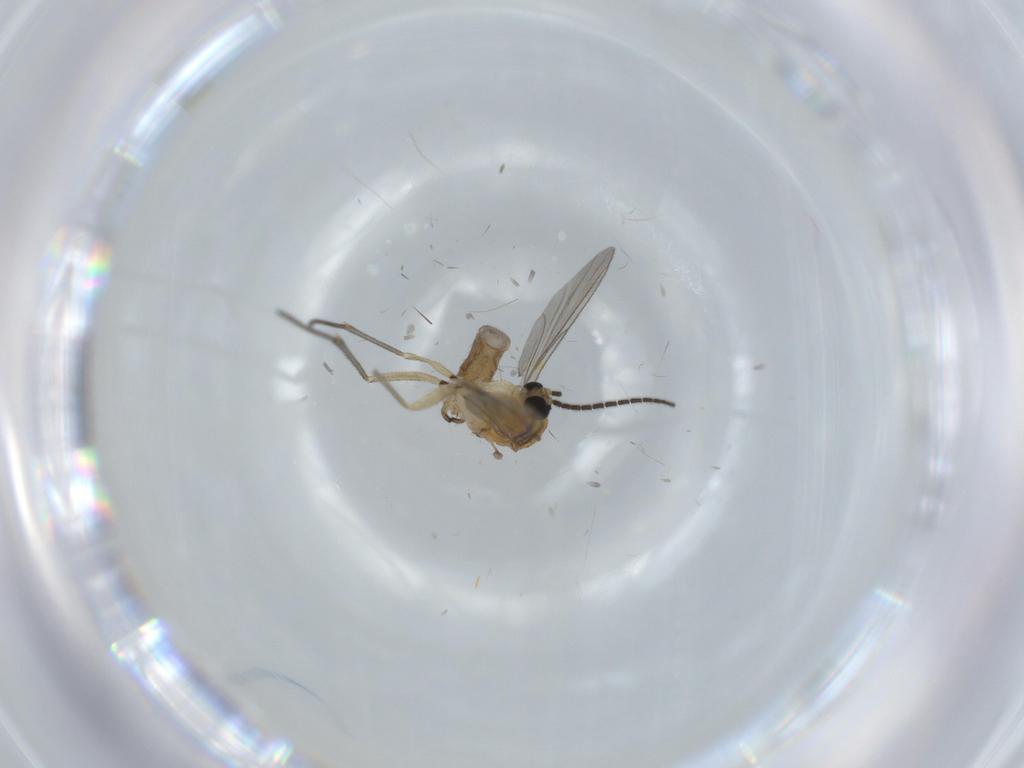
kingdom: Animalia
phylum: Arthropoda
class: Insecta
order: Diptera
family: Sciaridae
